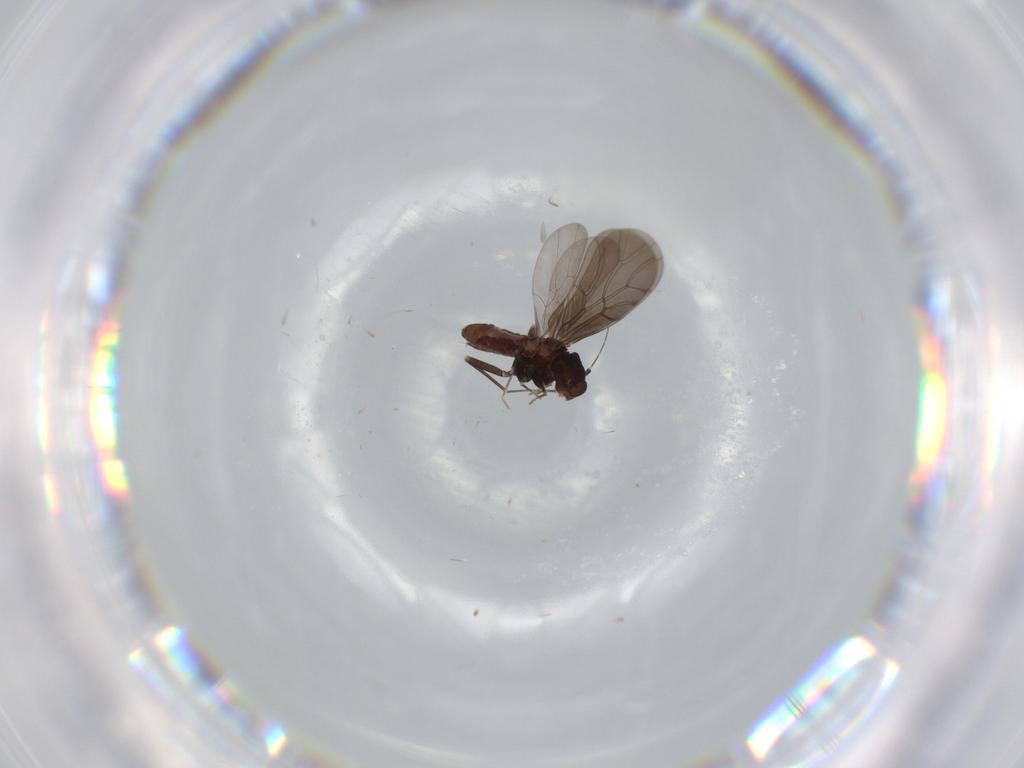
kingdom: Animalia
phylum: Arthropoda
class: Insecta
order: Psocodea
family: Lepidopsocidae
